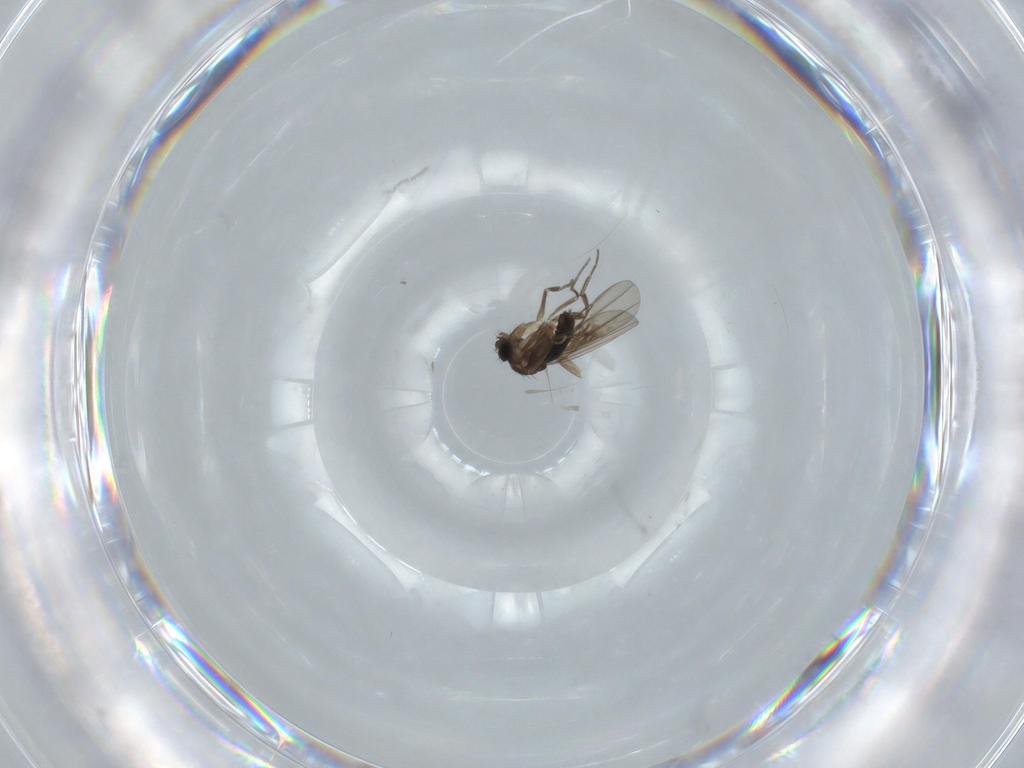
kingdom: Animalia
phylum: Arthropoda
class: Insecta
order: Diptera
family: Phoridae
